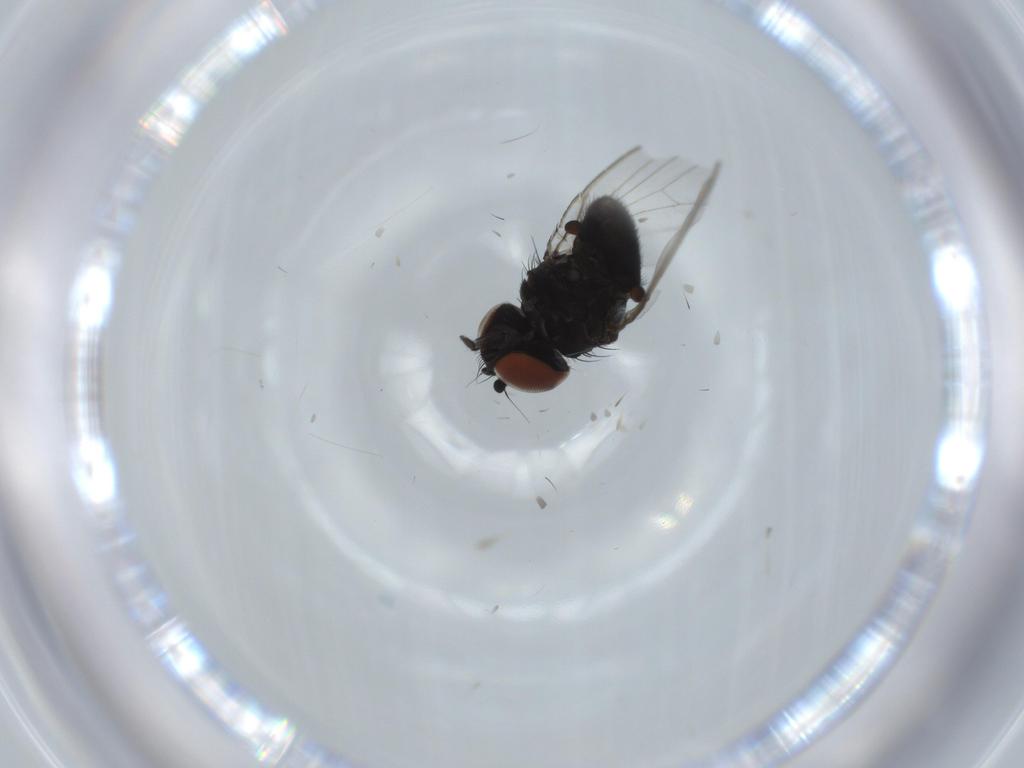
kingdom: Animalia
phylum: Arthropoda
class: Insecta
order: Diptera
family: Milichiidae
